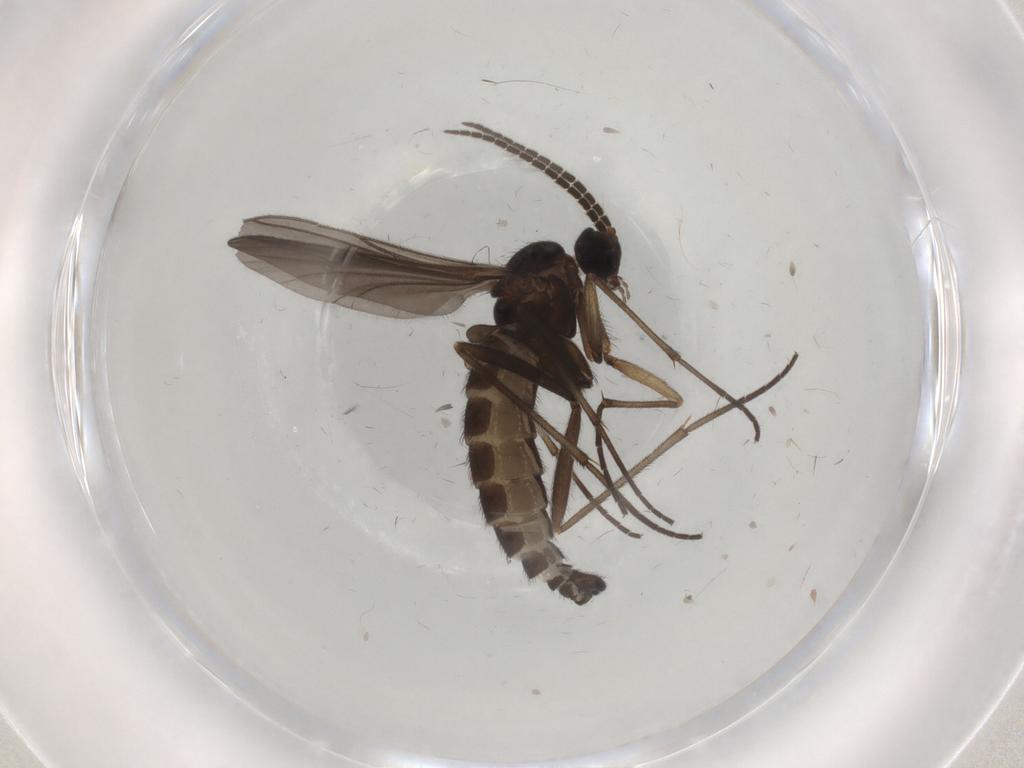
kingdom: Animalia
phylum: Arthropoda
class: Insecta
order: Diptera
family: Sciaridae
